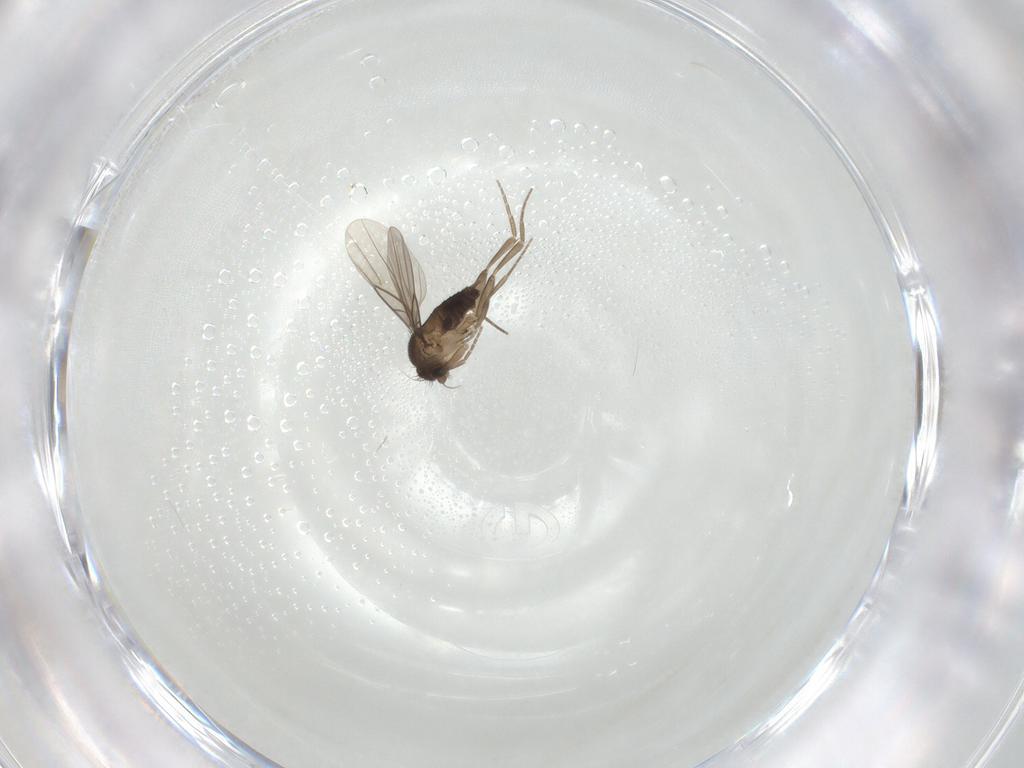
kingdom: Animalia
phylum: Arthropoda
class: Insecta
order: Diptera
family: Phoridae
